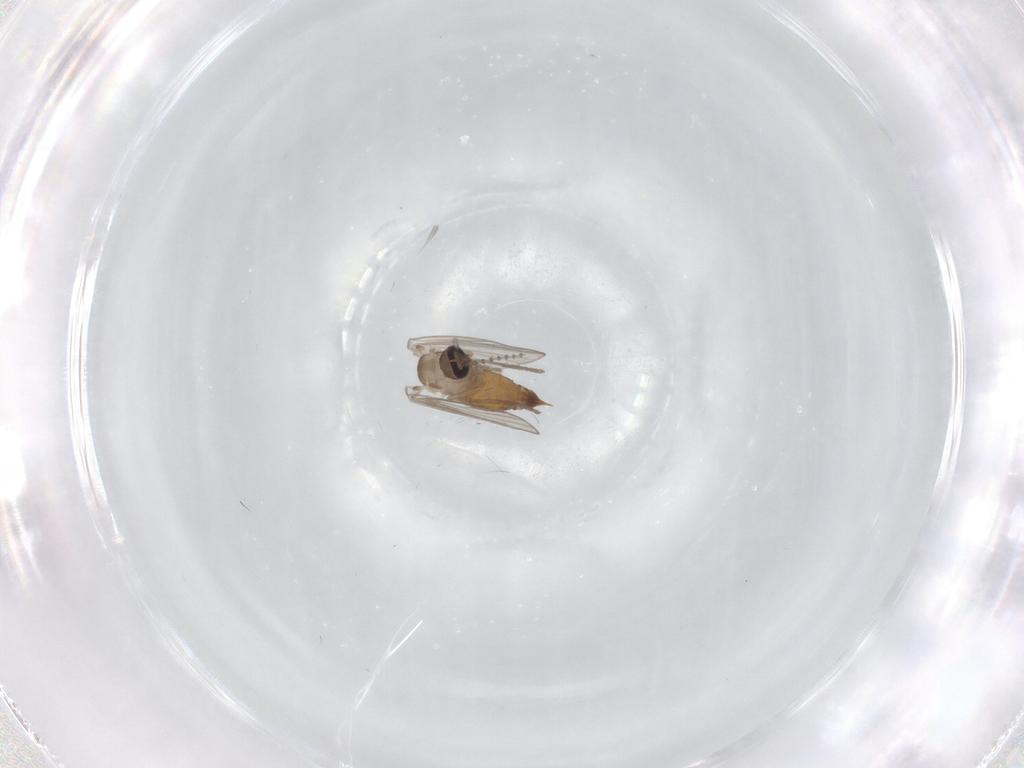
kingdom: Animalia
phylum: Arthropoda
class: Insecta
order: Diptera
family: Psychodidae
